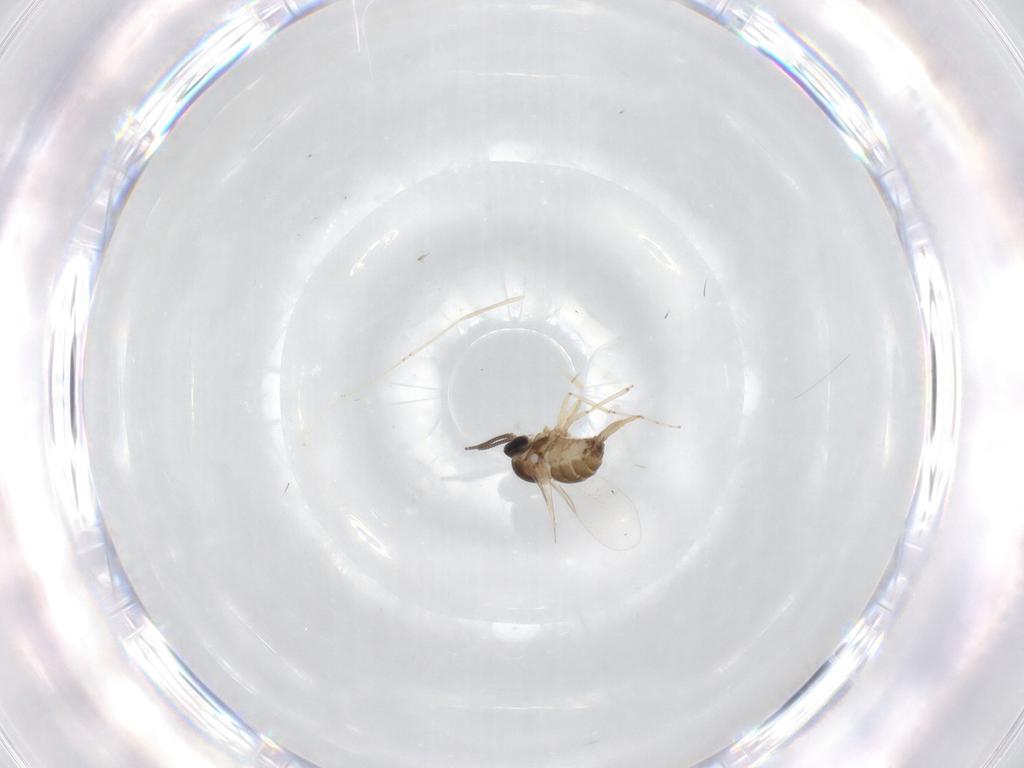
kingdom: Animalia
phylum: Arthropoda
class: Insecta
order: Diptera
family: Cecidomyiidae
